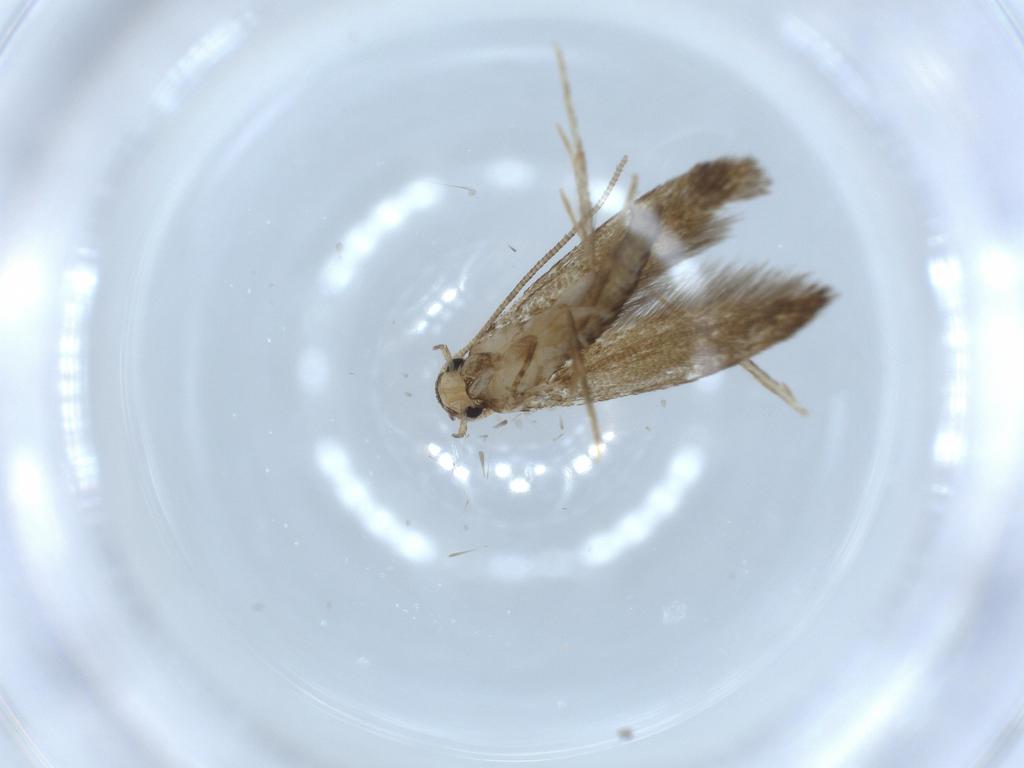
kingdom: Animalia
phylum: Arthropoda
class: Insecta
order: Lepidoptera
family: Tineidae
